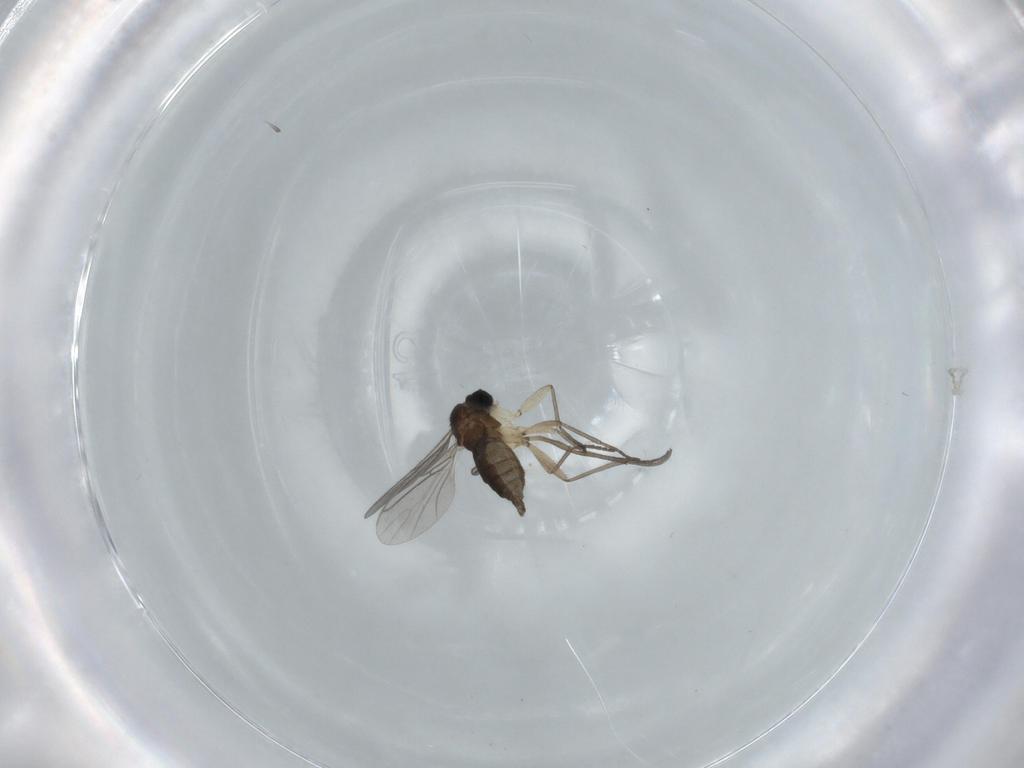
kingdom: Animalia
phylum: Arthropoda
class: Insecta
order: Diptera
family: Sciaridae
